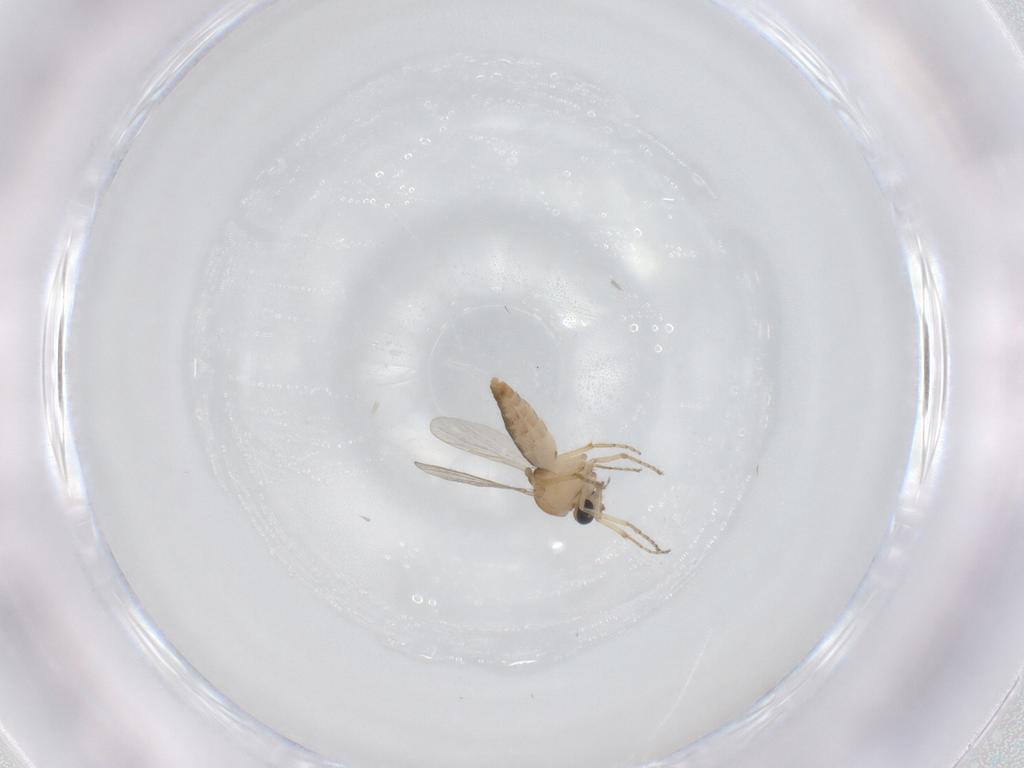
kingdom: Animalia
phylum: Arthropoda
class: Insecta
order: Diptera
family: Ceratopogonidae
